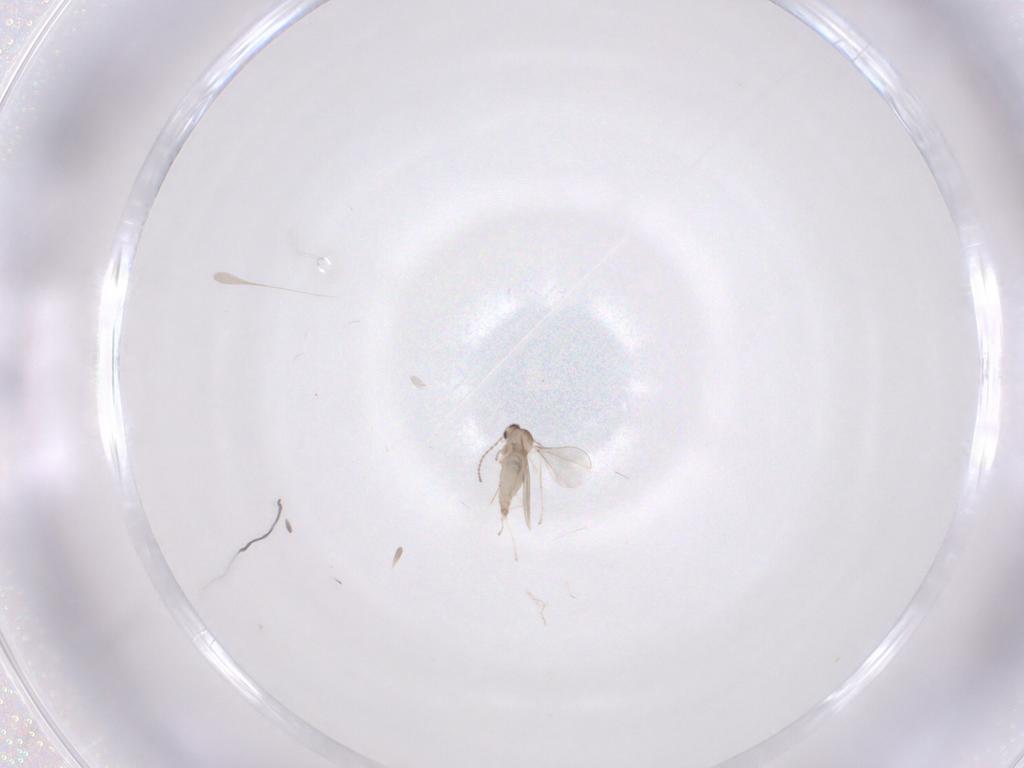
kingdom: Animalia
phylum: Arthropoda
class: Insecta
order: Diptera
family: Cecidomyiidae
